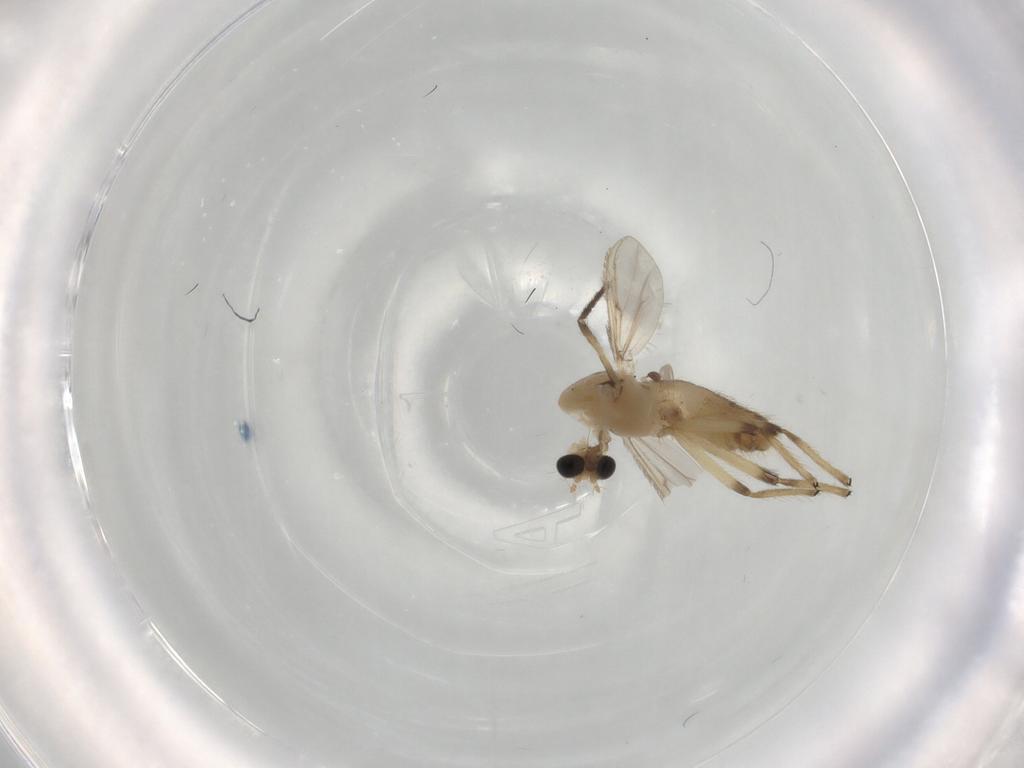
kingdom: Animalia
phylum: Arthropoda
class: Insecta
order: Diptera
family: Chironomidae
